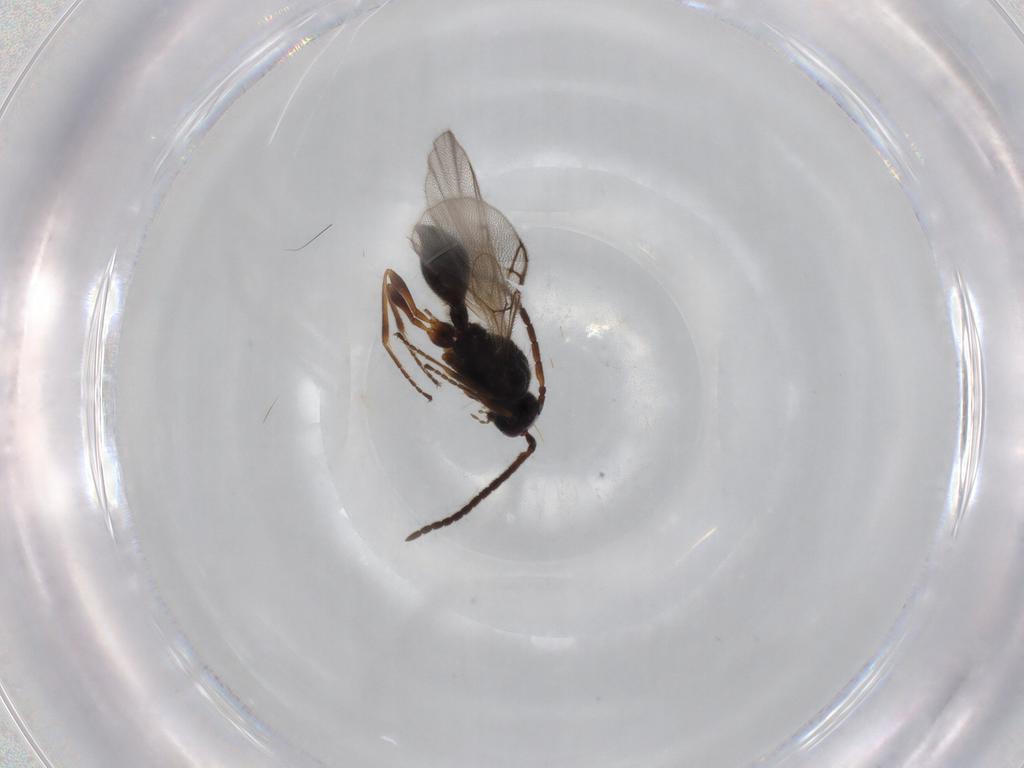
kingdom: Animalia
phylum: Arthropoda
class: Insecta
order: Hymenoptera
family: Diapriidae
